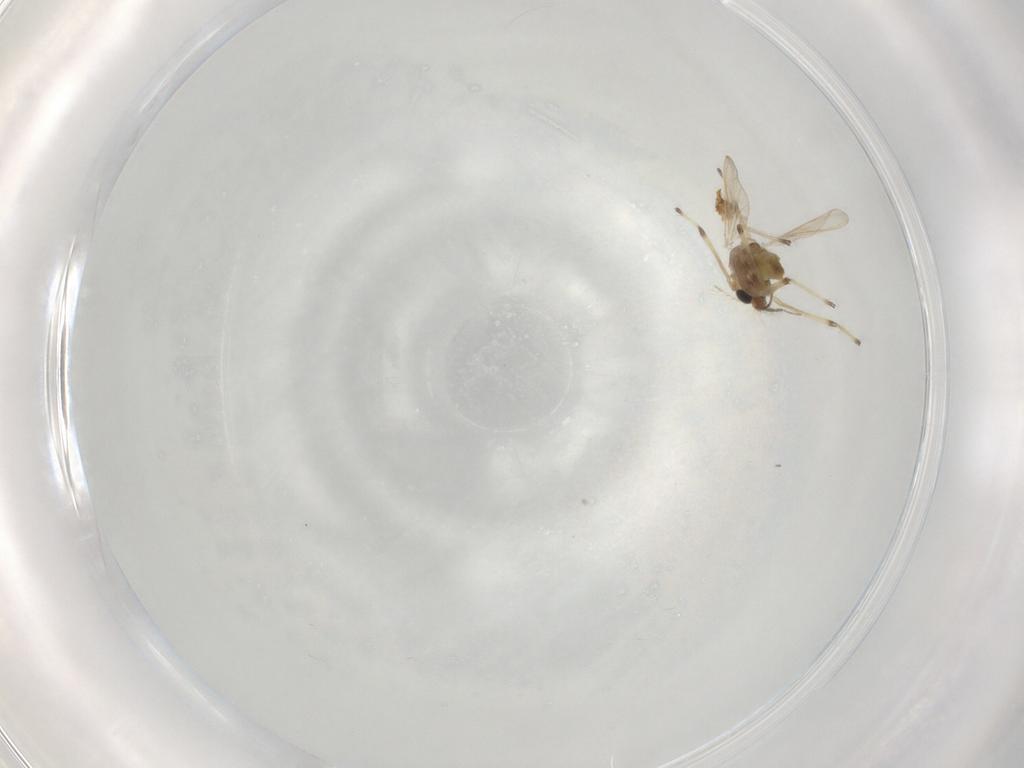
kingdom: Animalia
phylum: Arthropoda
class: Insecta
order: Diptera
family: Chironomidae
